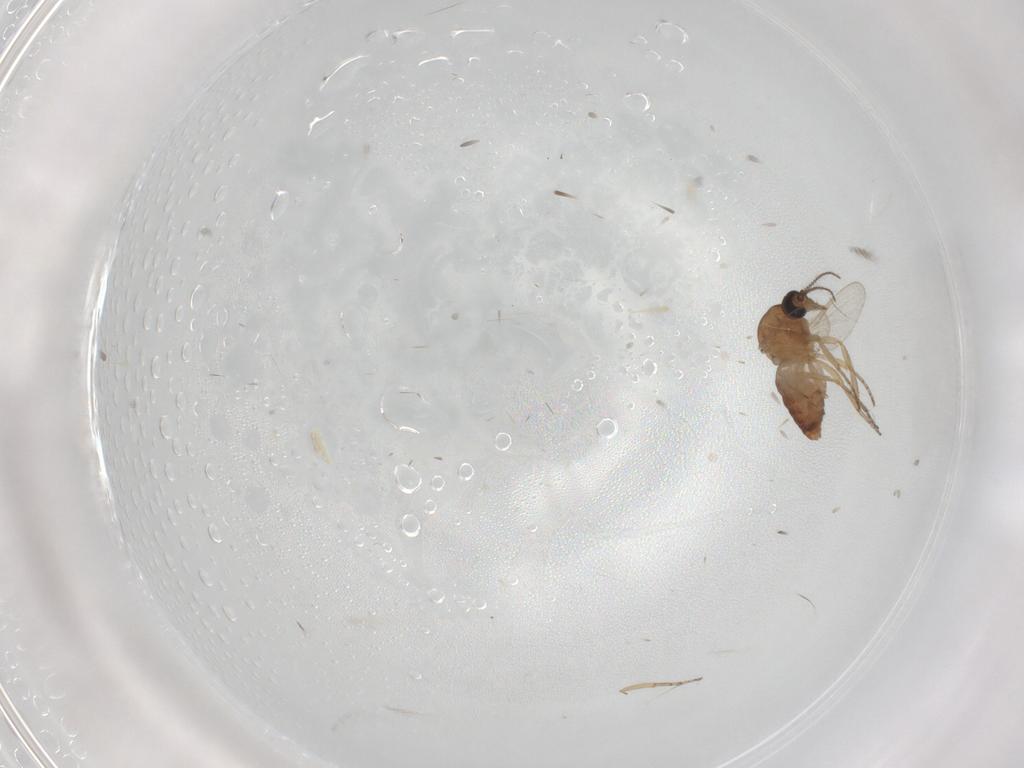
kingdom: Animalia
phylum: Arthropoda
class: Insecta
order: Diptera
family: Ceratopogonidae
